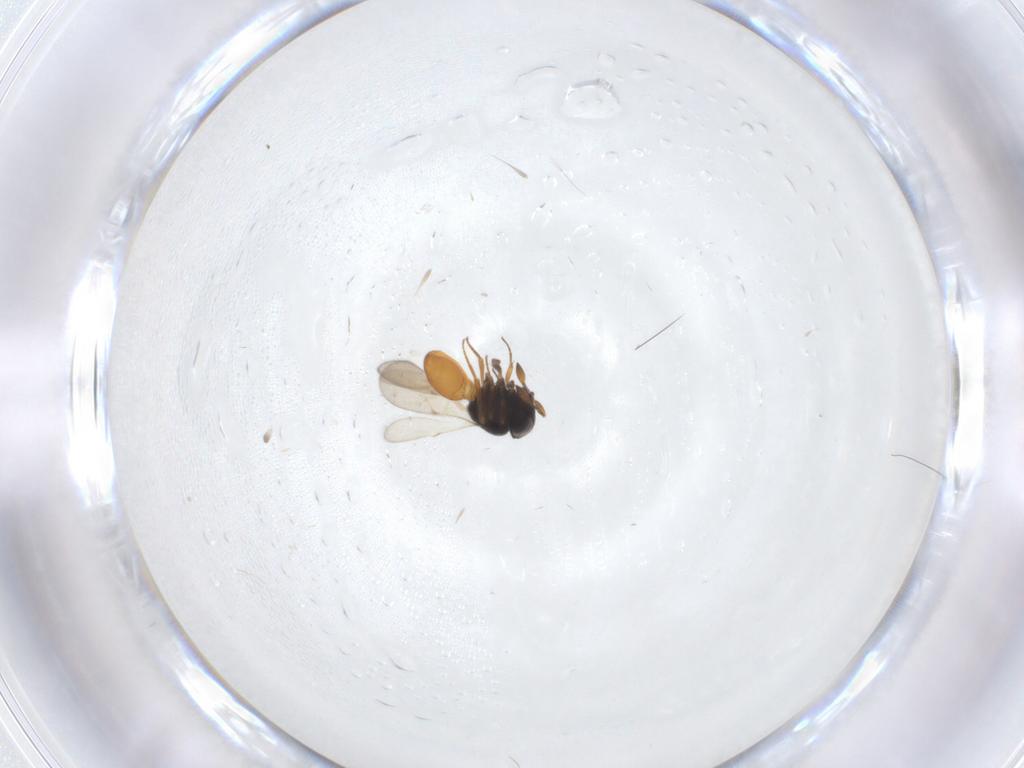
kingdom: Animalia
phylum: Arthropoda
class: Insecta
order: Hymenoptera
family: Scelionidae
